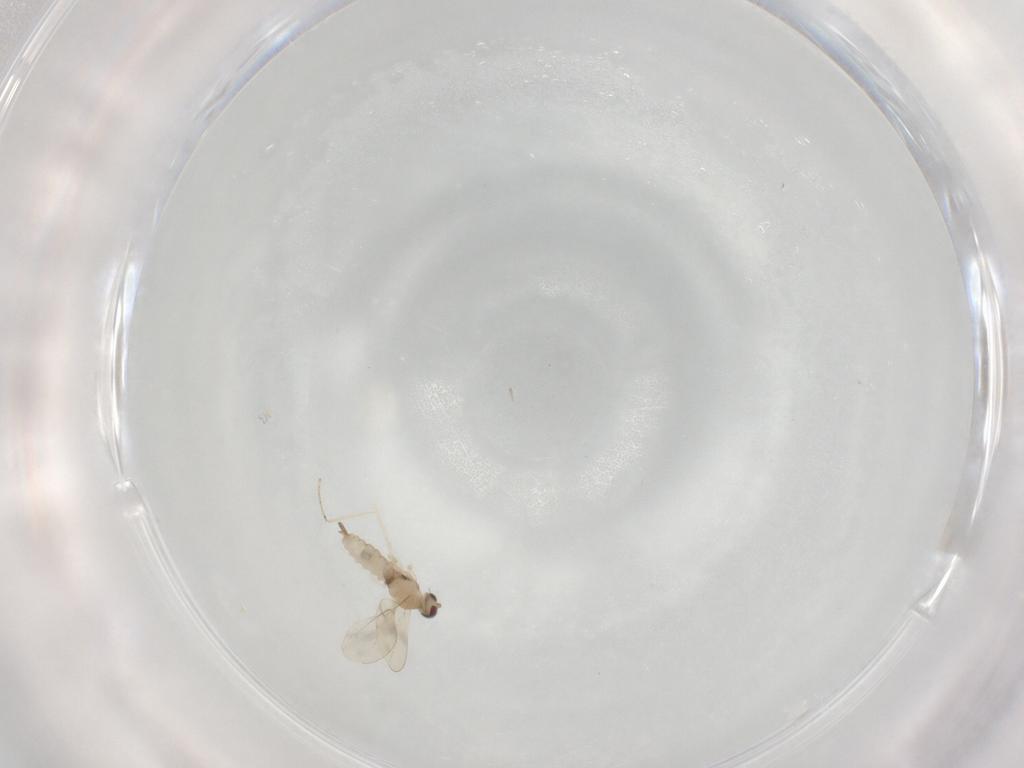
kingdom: Animalia
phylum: Arthropoda
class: Insecta
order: Diptera
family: Cecidomyiidae
